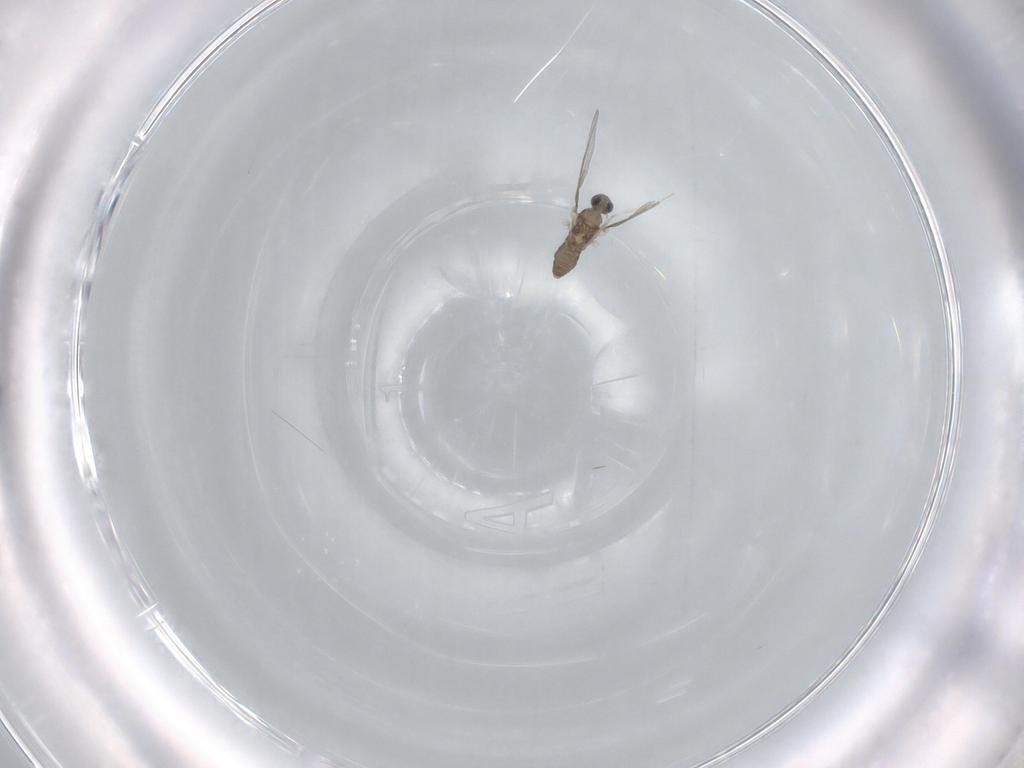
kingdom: Animalia
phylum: Arthropoda
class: Insecta
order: Diptera
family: Cecidomyiidae
